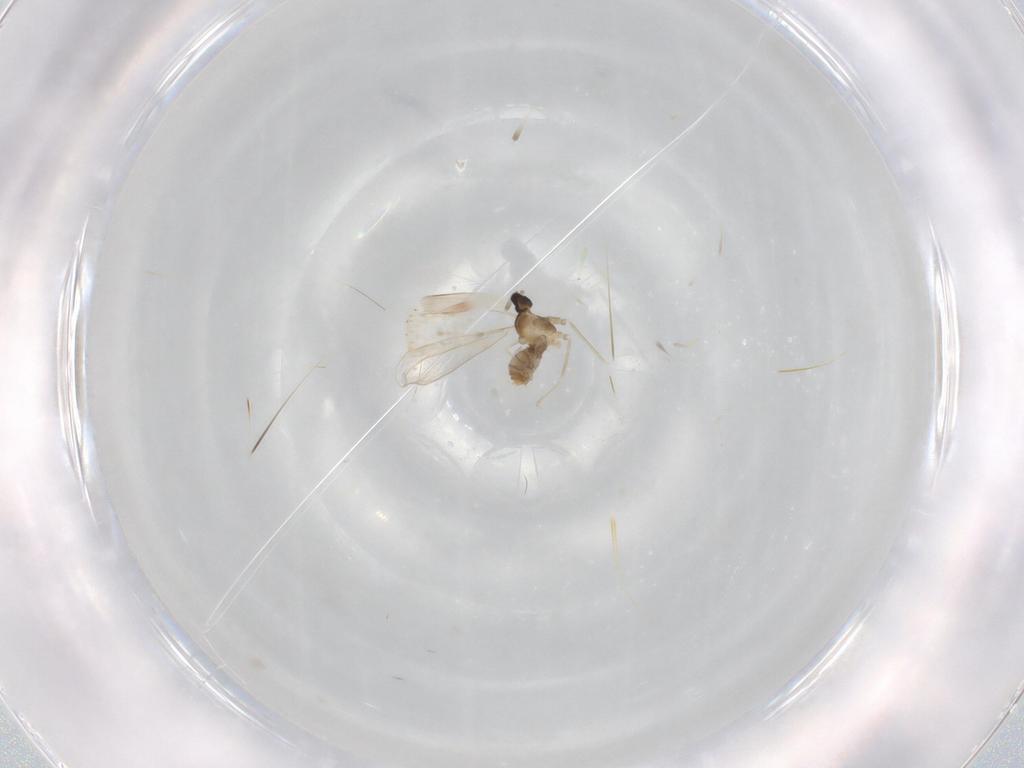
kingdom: Animalia
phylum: Arthropoda
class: Insecta
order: Diptera
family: Cecidomyiidae
